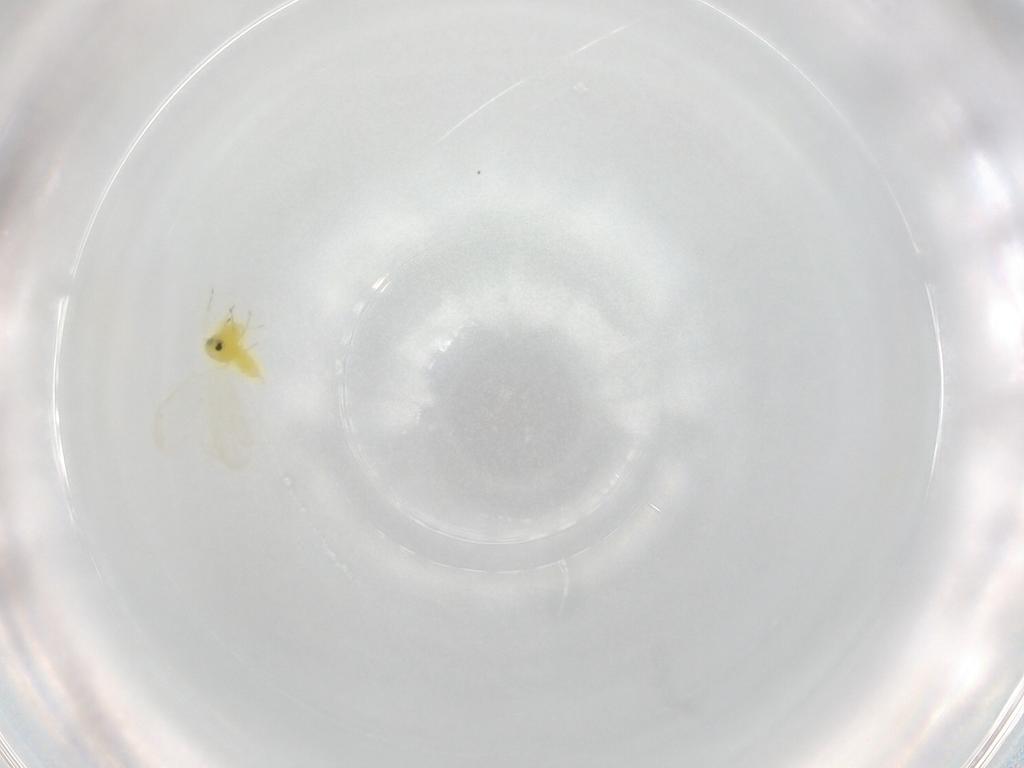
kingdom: Animalia
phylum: Arthropoda
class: Insecta
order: Hemiptera
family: Aleyrodidae
